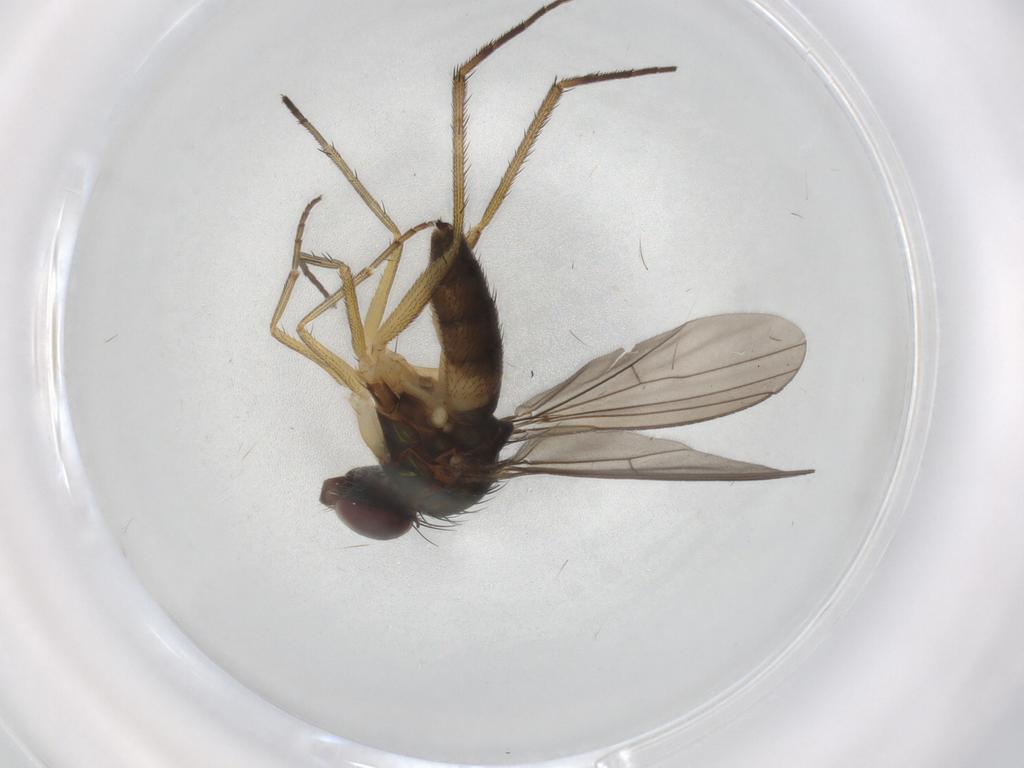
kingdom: Animalia
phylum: Arthropoda
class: Insecta
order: Diptera
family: Dolichopodidae
